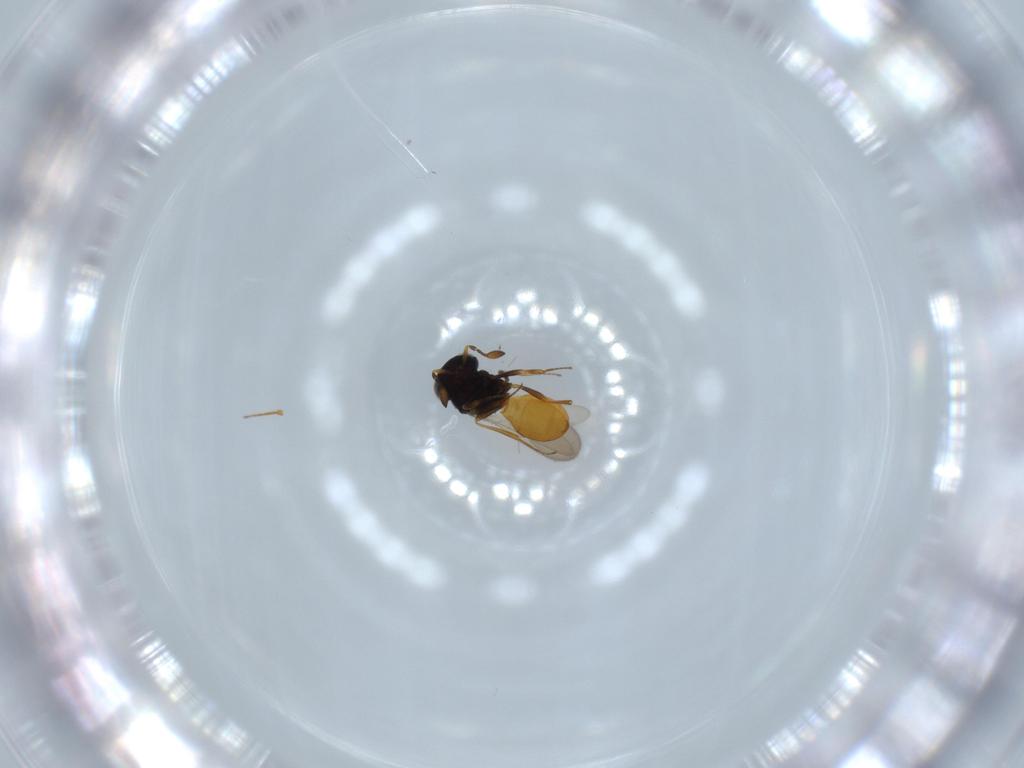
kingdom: Animalia
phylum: Arthropoda
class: Insecta
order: Hymenoptera
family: Scelionidae
